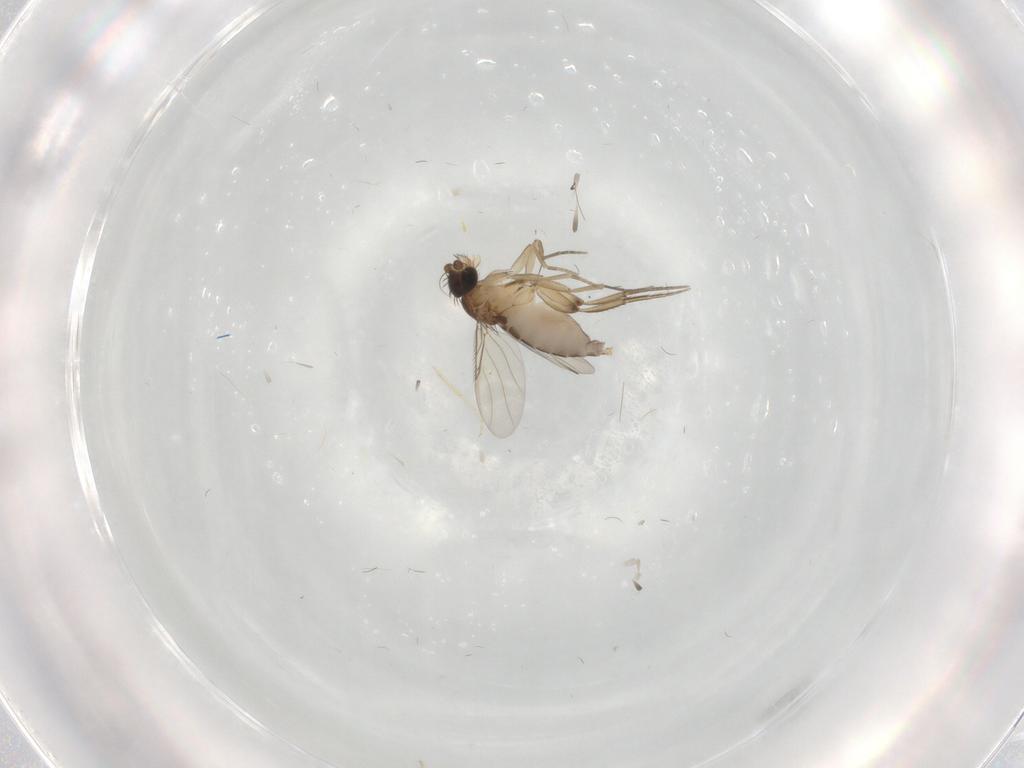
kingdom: Animalia
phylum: Arthropoda
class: Insecta
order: Diptera
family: Phoridae
